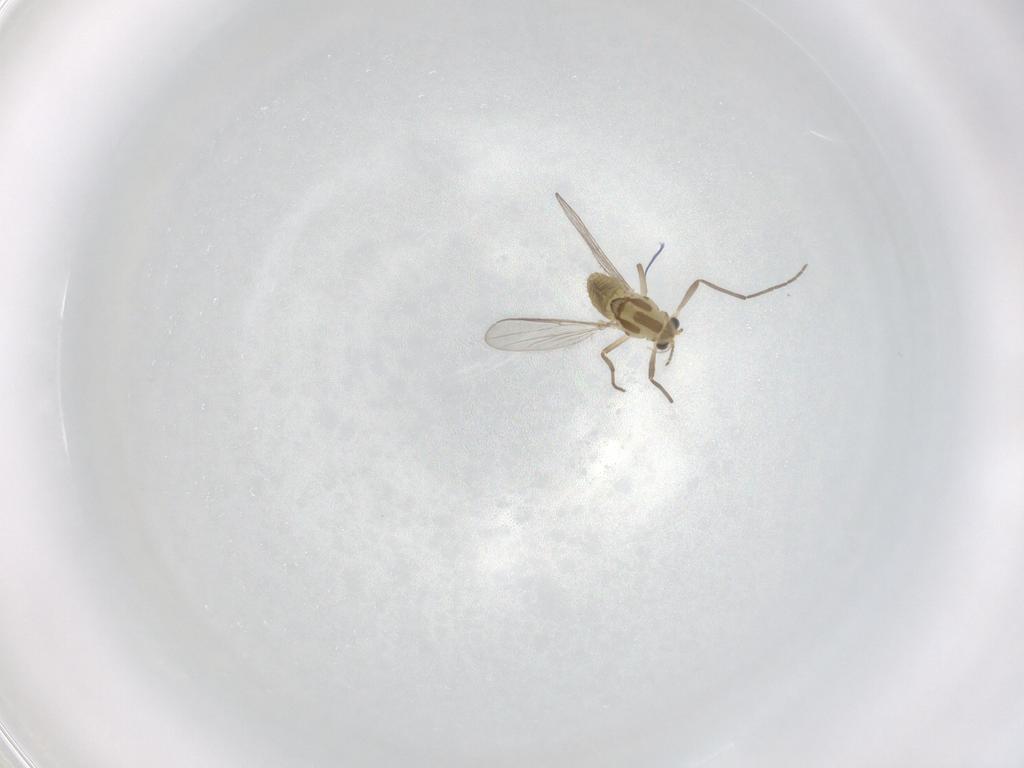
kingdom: Animalia
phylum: Arthropoda
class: Insecta
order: Diptera
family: Chironomidae
